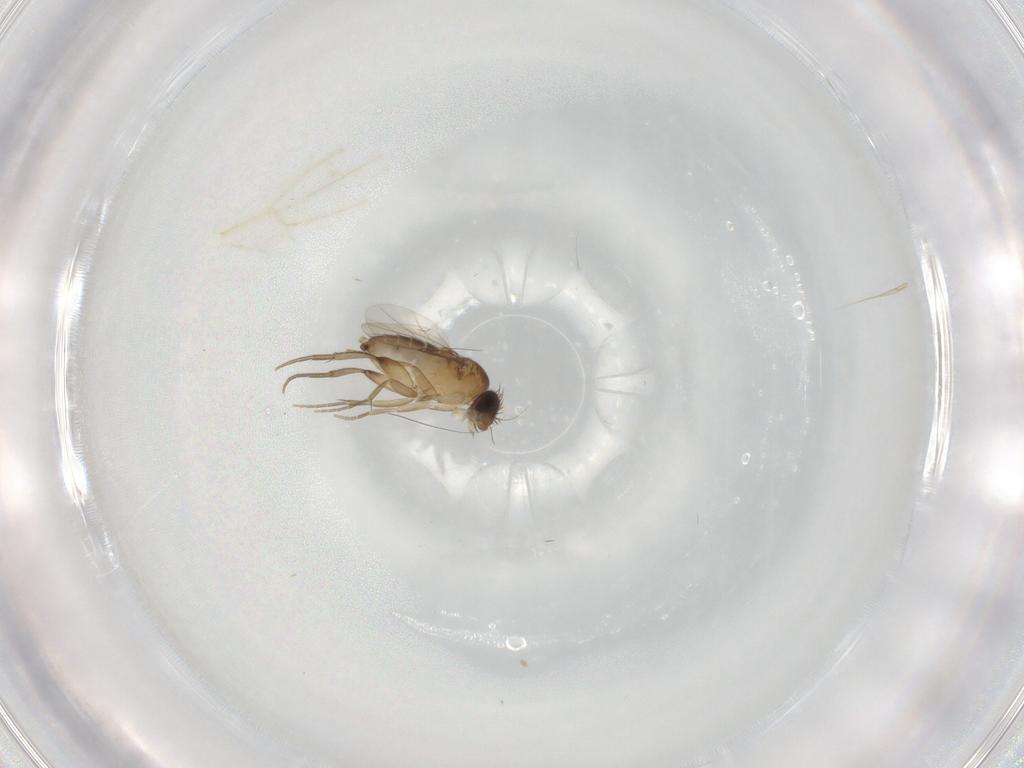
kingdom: Animalia
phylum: Arthropoda
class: Insecta
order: Diptera
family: Phoridae
